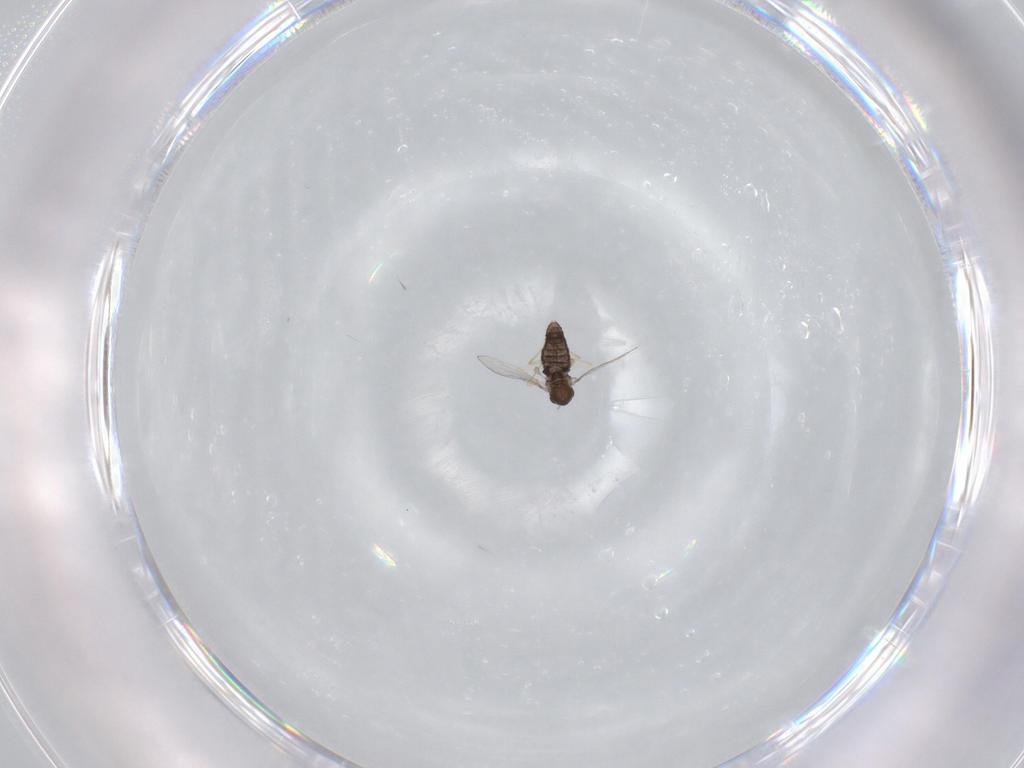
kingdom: Animalia
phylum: Arthropoda
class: Insecta
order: Diptera
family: Chironomidae
